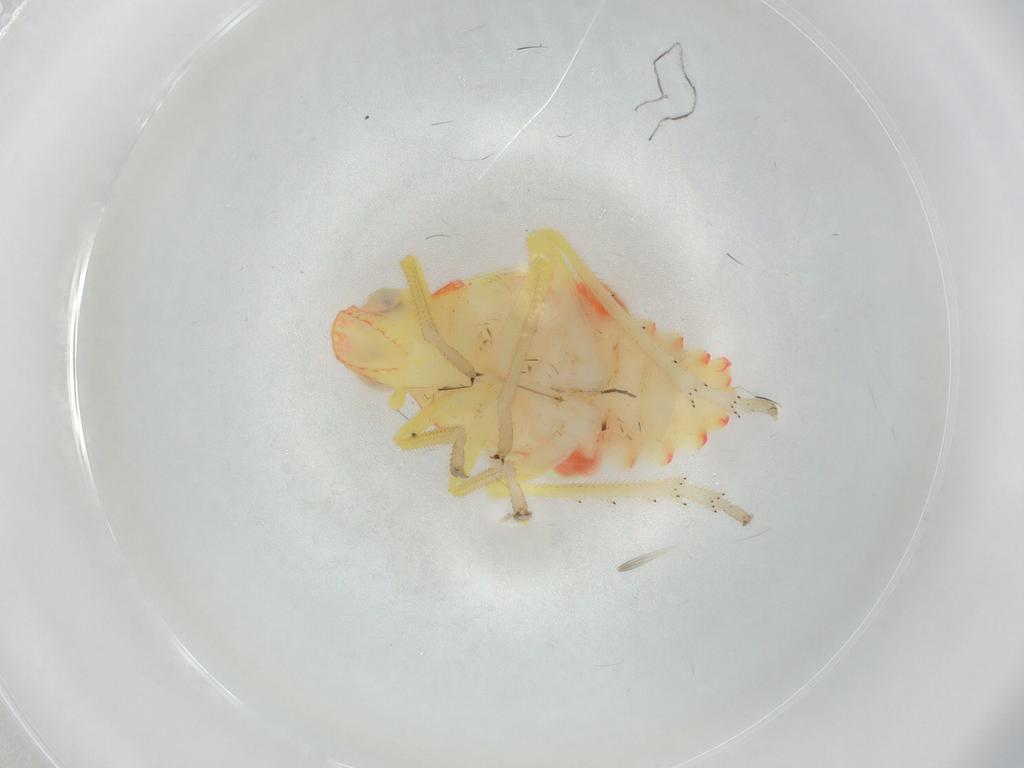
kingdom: Animalia
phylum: Arthropoda
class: Insecta
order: Hemiptera
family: Tropiduchidae
